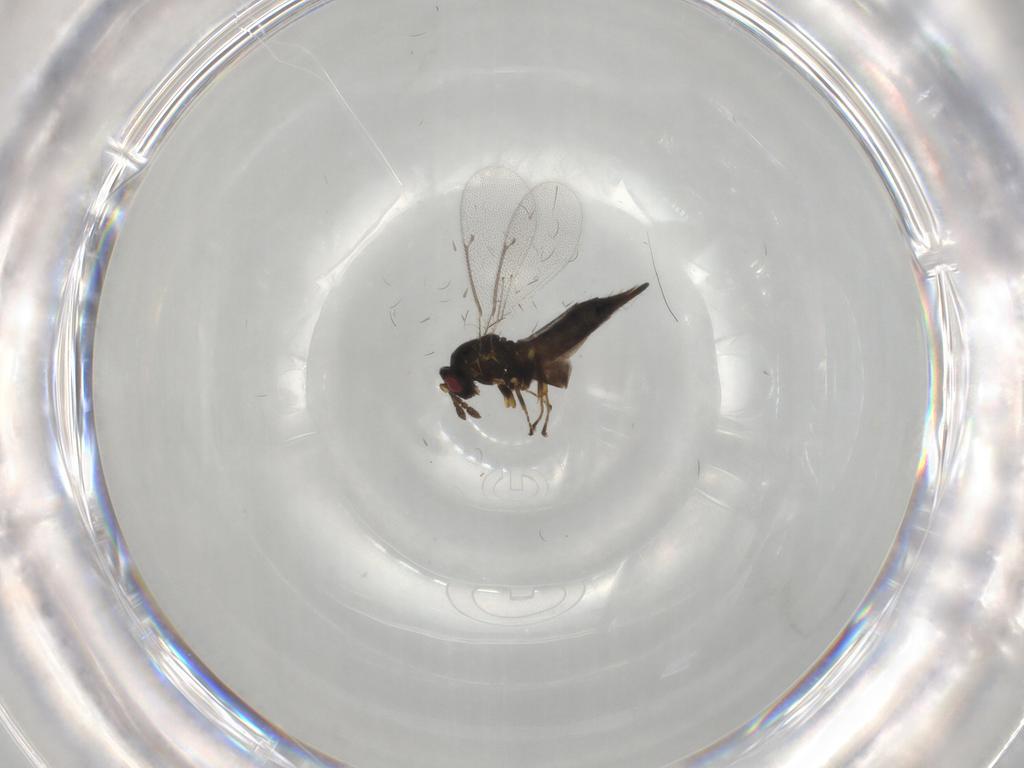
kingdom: Animalia
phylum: Arthropoda
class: Insecta
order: Hymenoptera
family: Eulophidae
